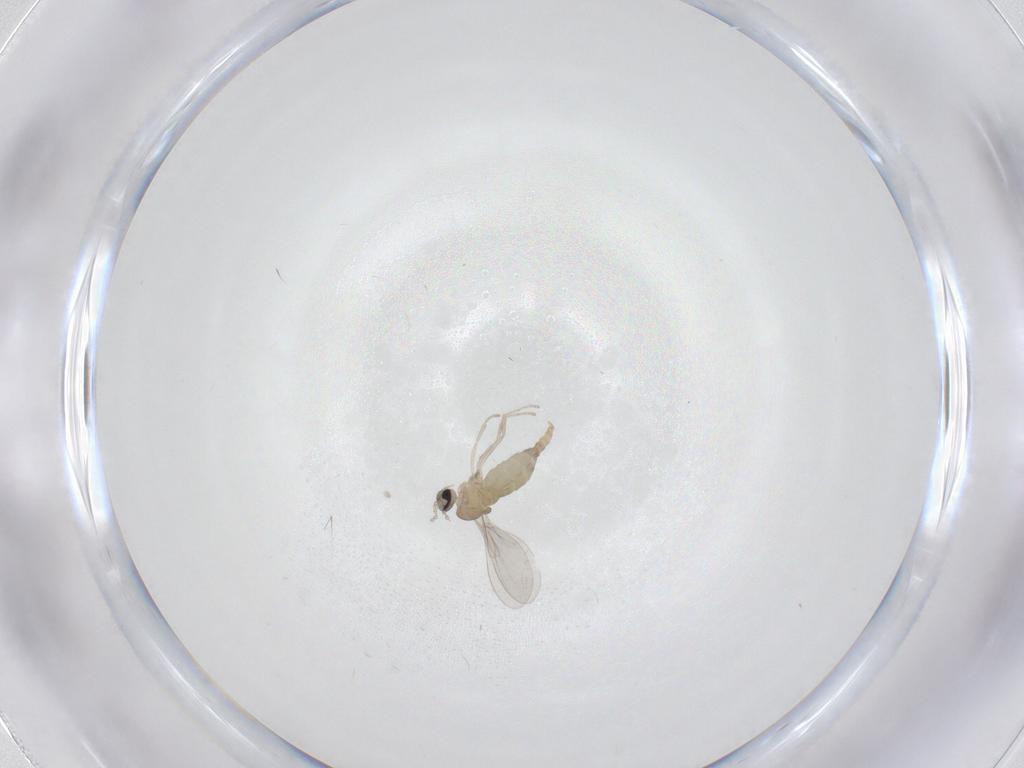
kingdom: Animalia
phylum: Arthropoda
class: Insecta
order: Diptera
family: Cecidomyiidae
